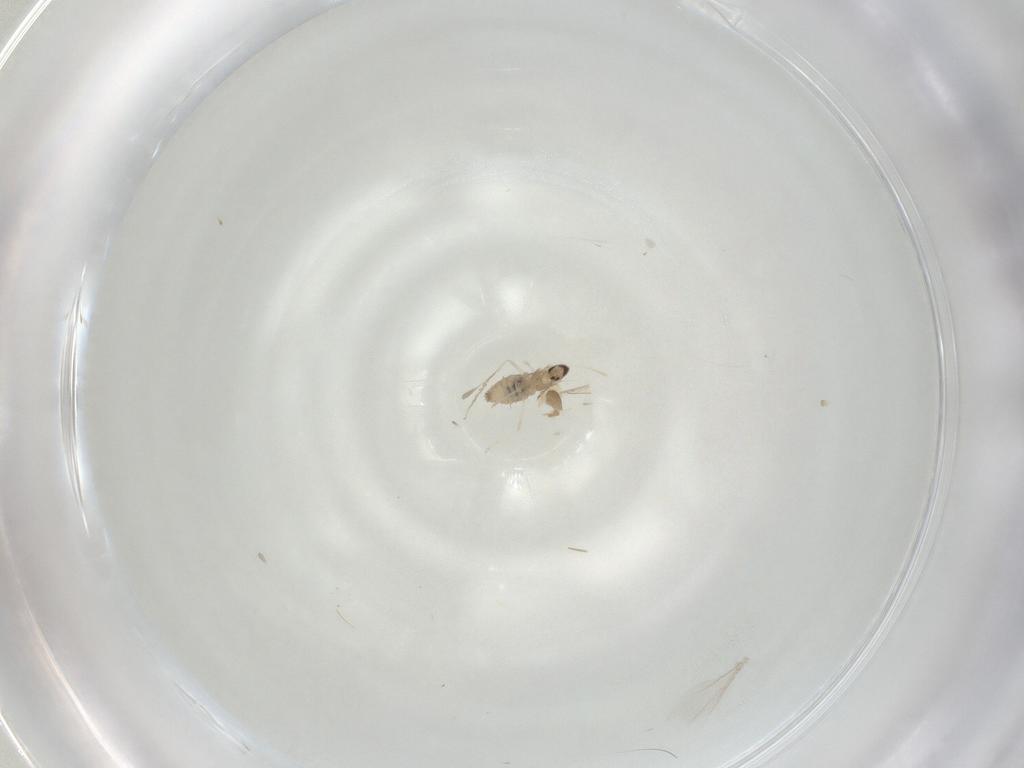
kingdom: Animalia
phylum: Arthropoda
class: Insecta
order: Diptera
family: Cecidomyiidae
